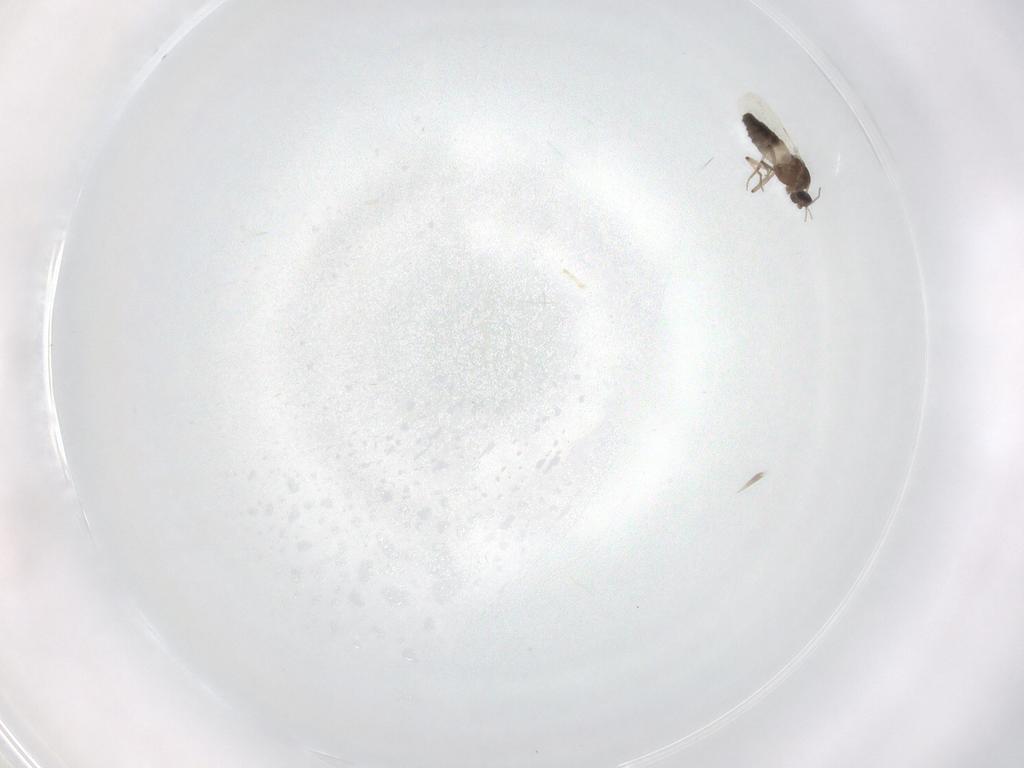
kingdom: Animalia
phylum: Arthropoda
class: Insecta
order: Diptera
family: Ceratopogonidae
